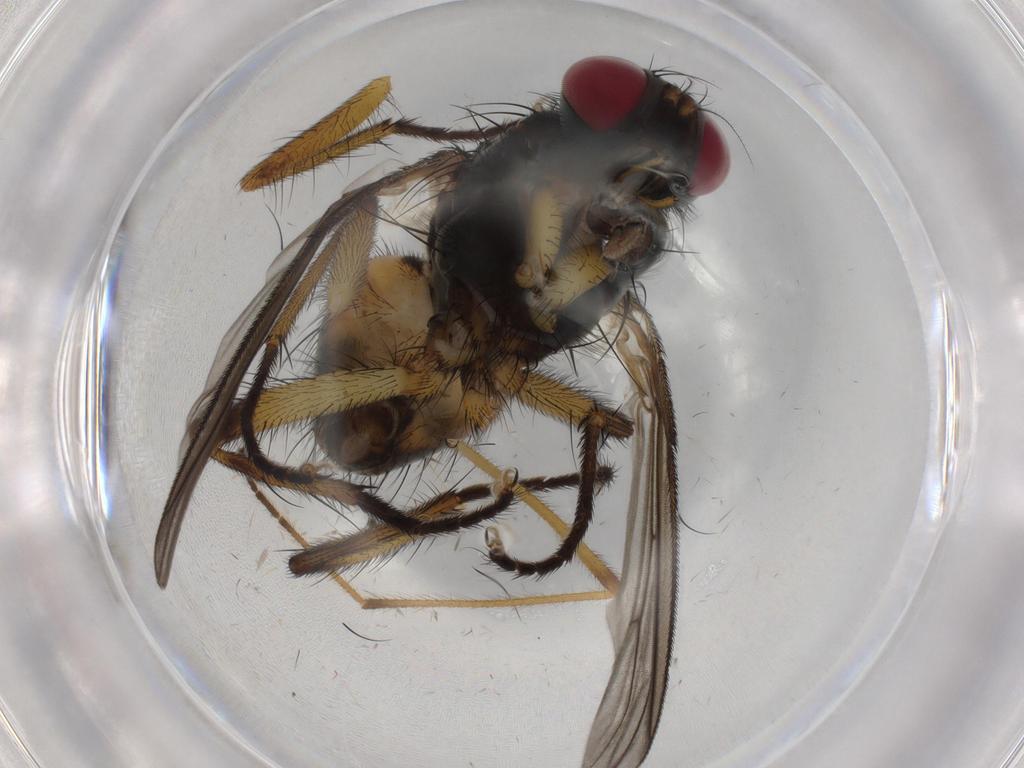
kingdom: Animalia
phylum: Arthropoda
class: Insecta
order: Diptera
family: Muscidae
